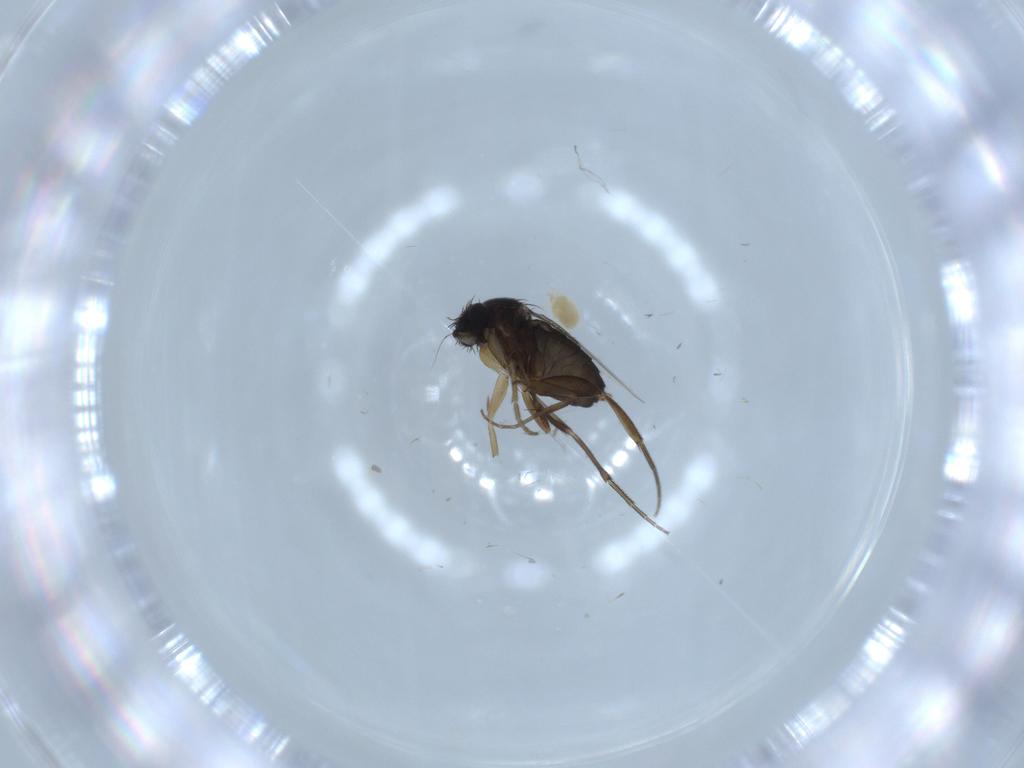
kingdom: Animalia
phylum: Arthropoda
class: Insecta
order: Diptera
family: Phoridae
